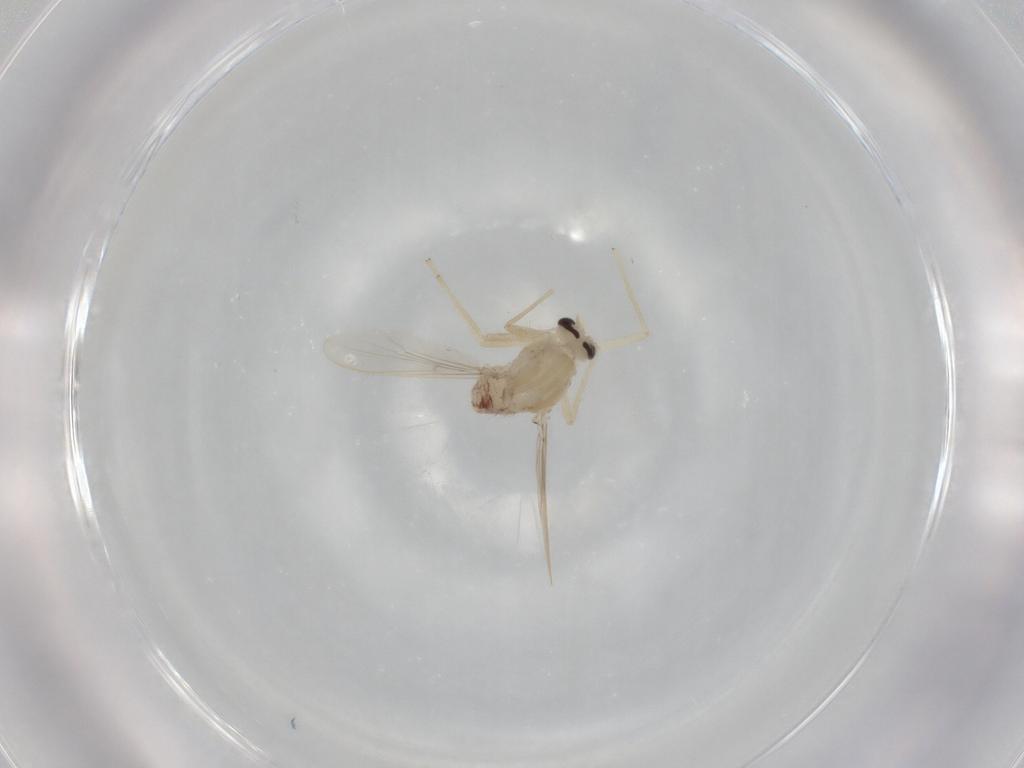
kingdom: Animalia
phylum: Arthropoda
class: Insecta
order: Diptera
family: Chironomidae
